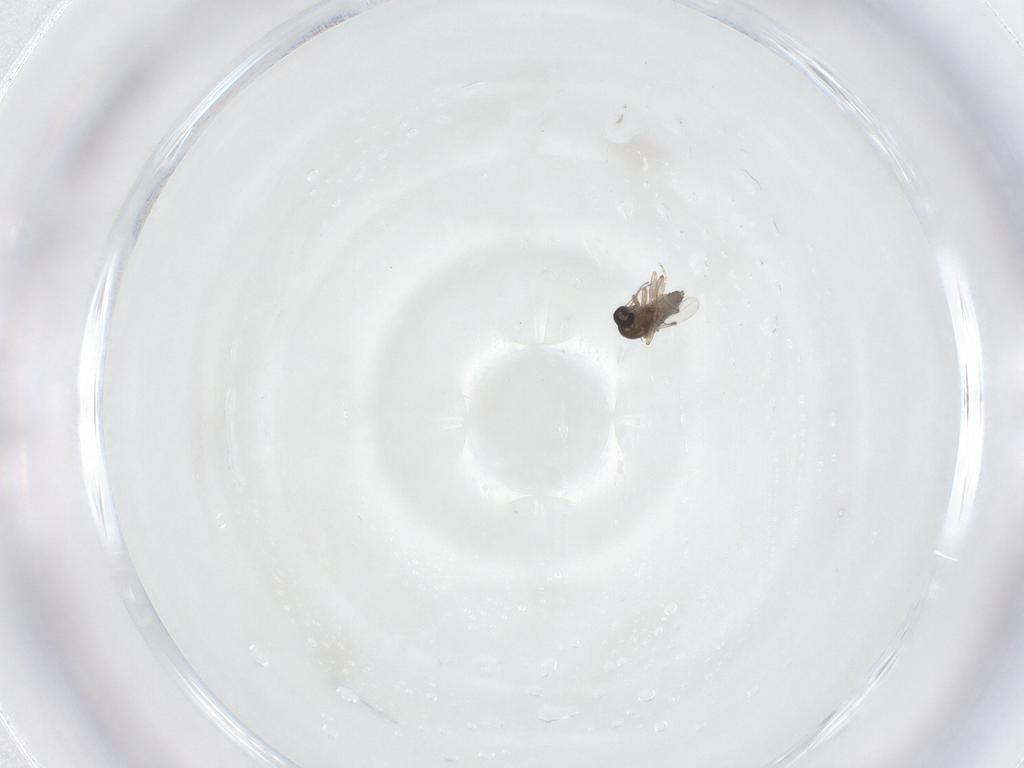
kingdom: Animalia
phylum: Arthropoda
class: Insecta
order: Diptera
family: Ceratopogonidae
